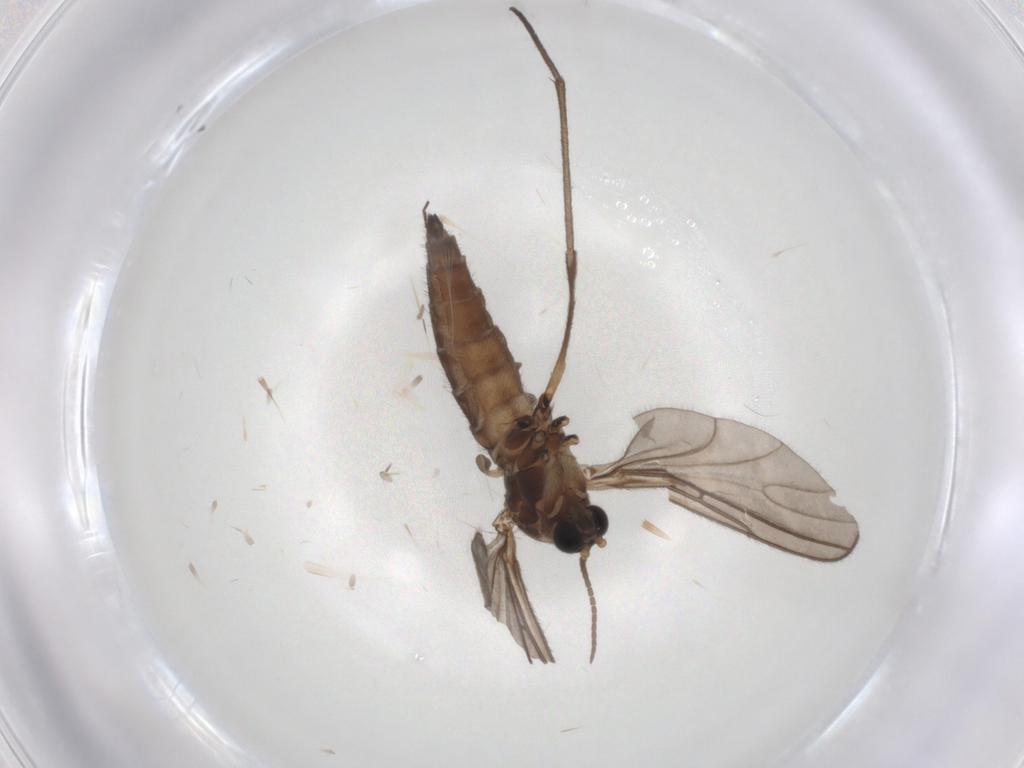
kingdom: Animalia
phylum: Arthropoda
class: Insecta
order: Diptera
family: Sciaridae
